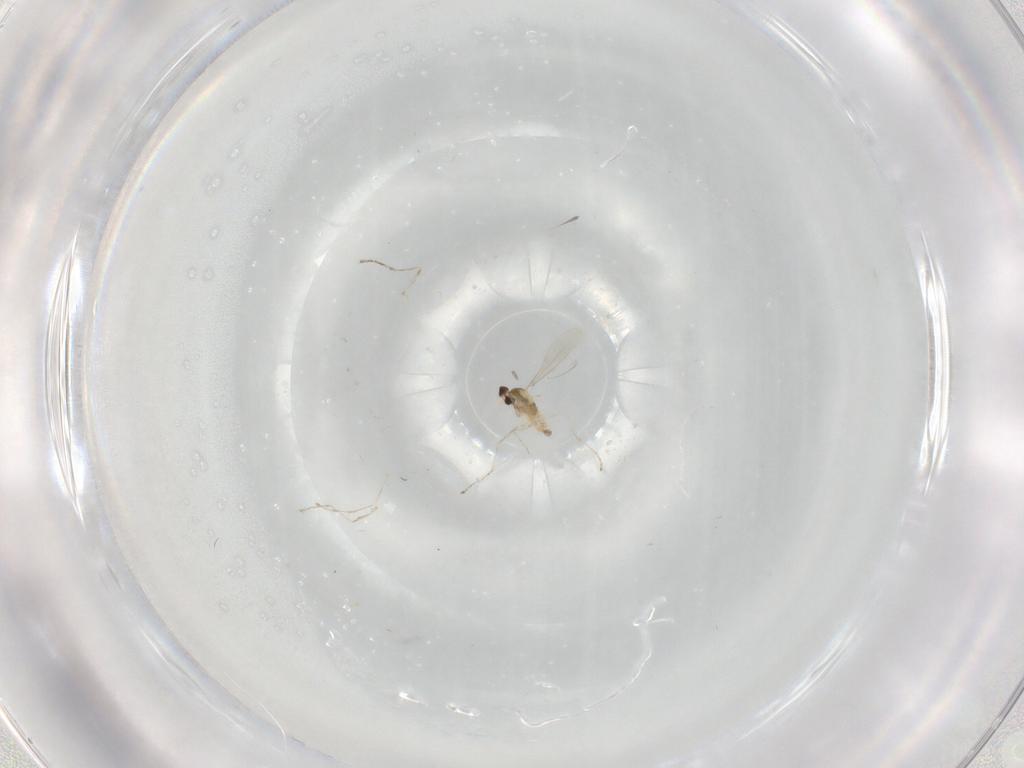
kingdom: Animalia
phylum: Arthropoda
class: Insecta
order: Diptera
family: Cecidomyiidae
